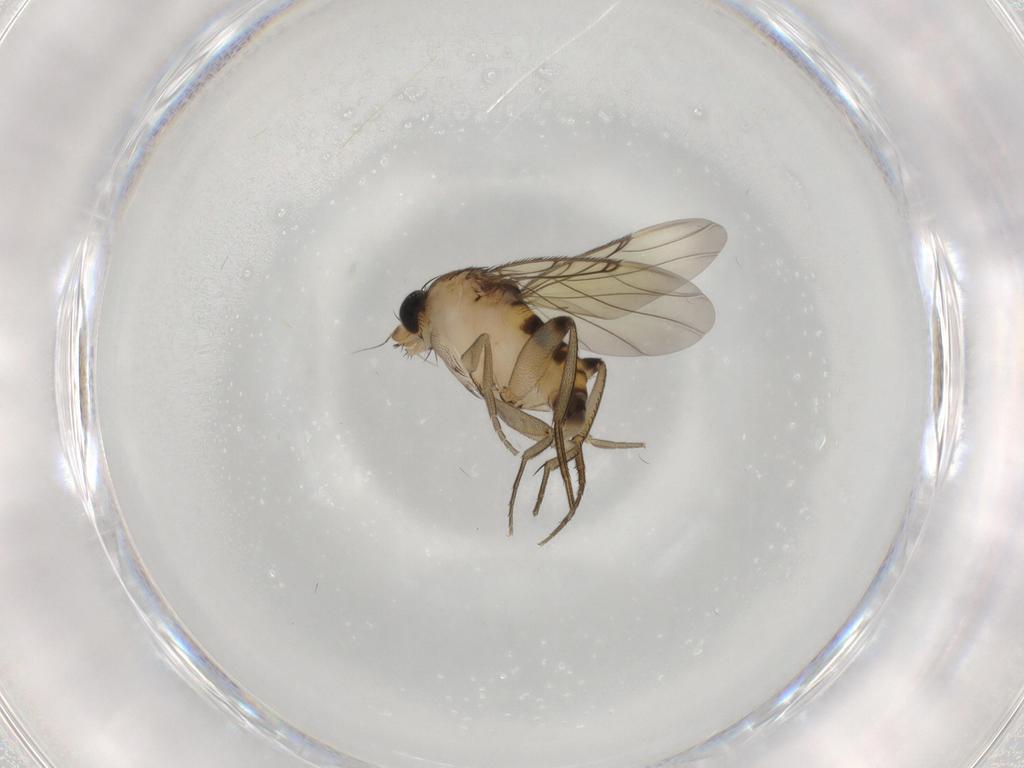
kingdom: Animalia
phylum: Arthropoda
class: Insecta
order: Diptera
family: Phoridae
